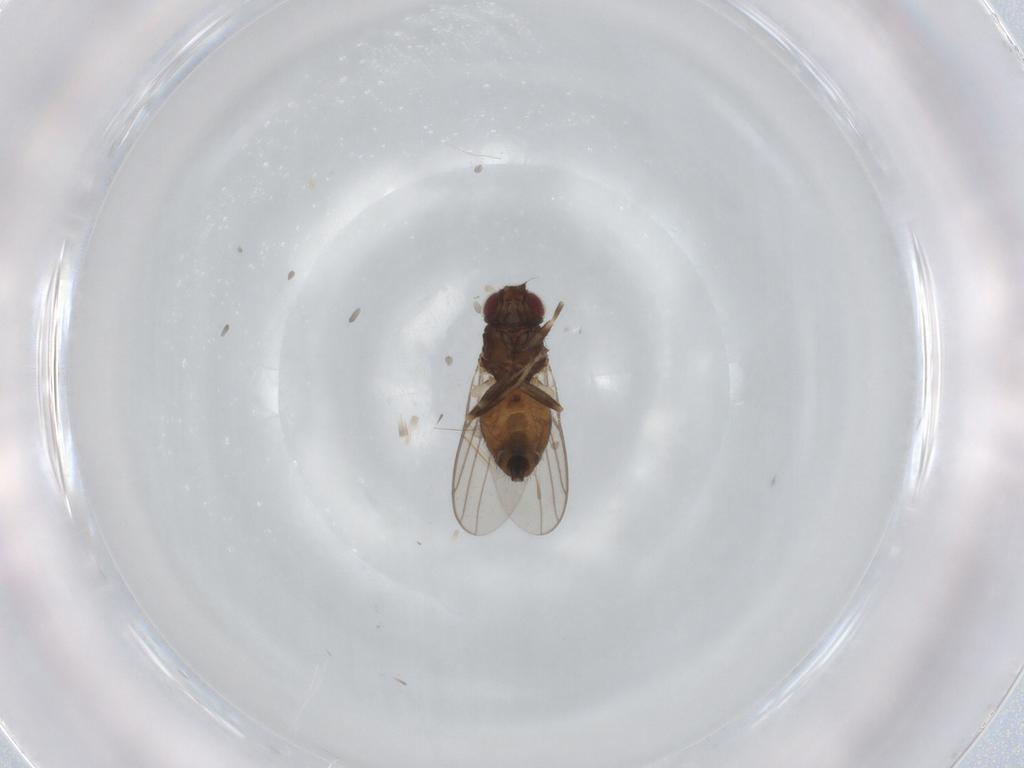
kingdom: Animalia
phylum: Arthropoda
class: Insecta
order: Diptera
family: Chloropidae
